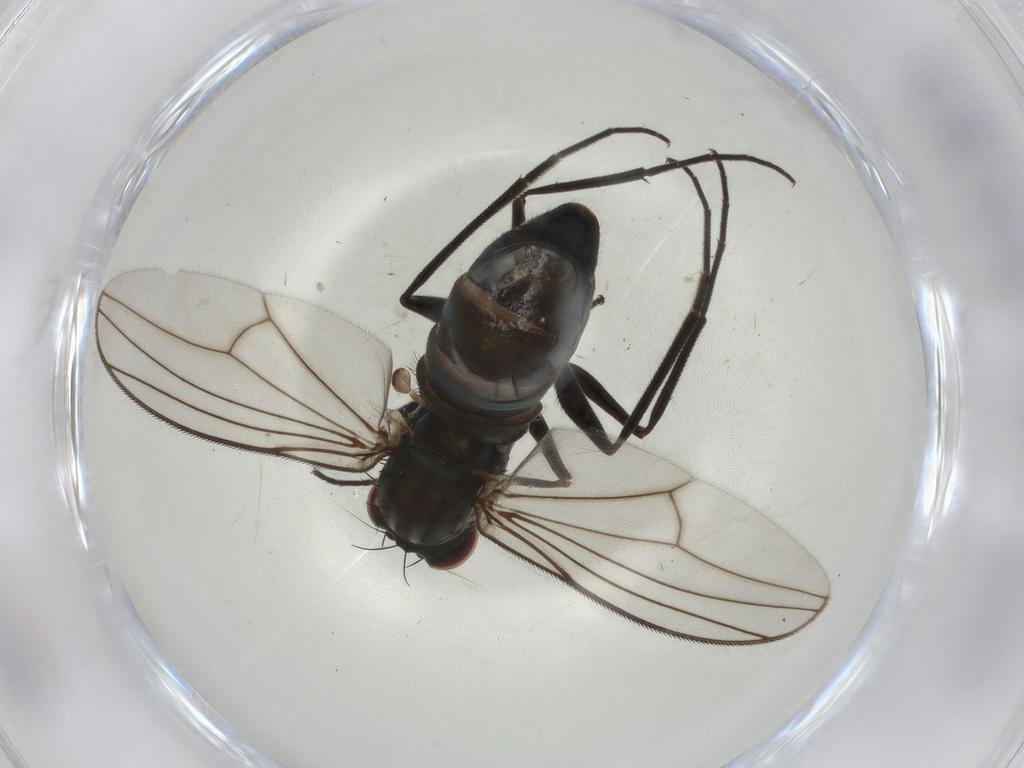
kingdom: Animalia
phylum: Arthropoda
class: Insecta
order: Diptera
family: Dolichopodidae
